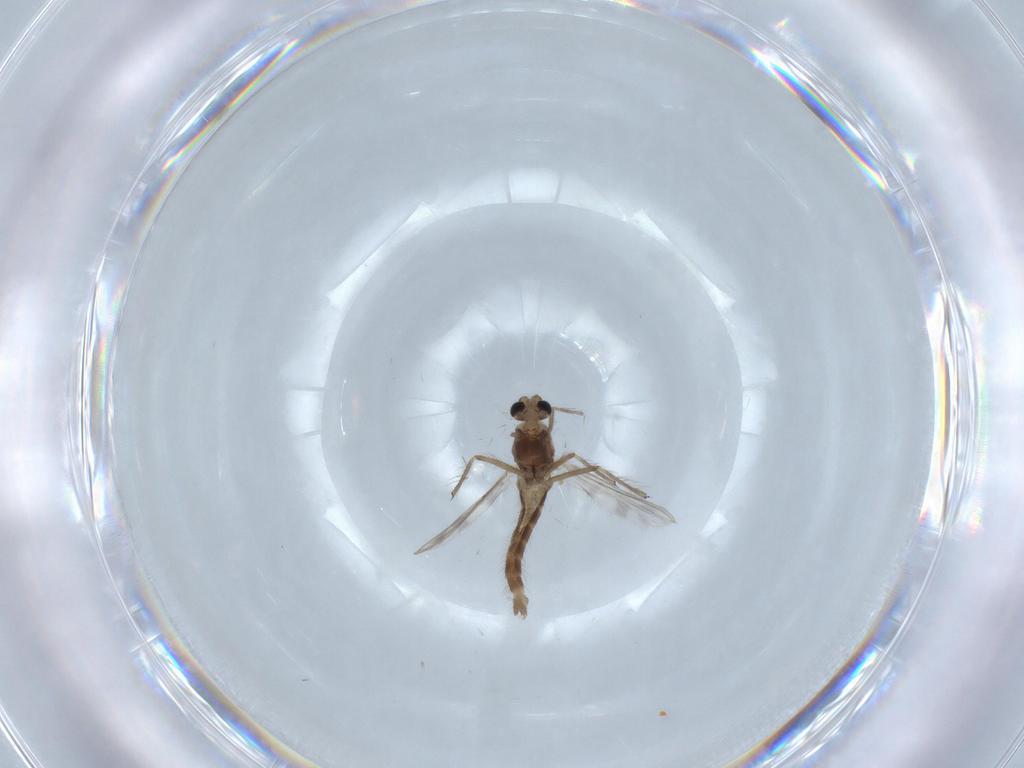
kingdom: Animalia
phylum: Arthropoda
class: Insecta
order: Diptera
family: Chironomidae
